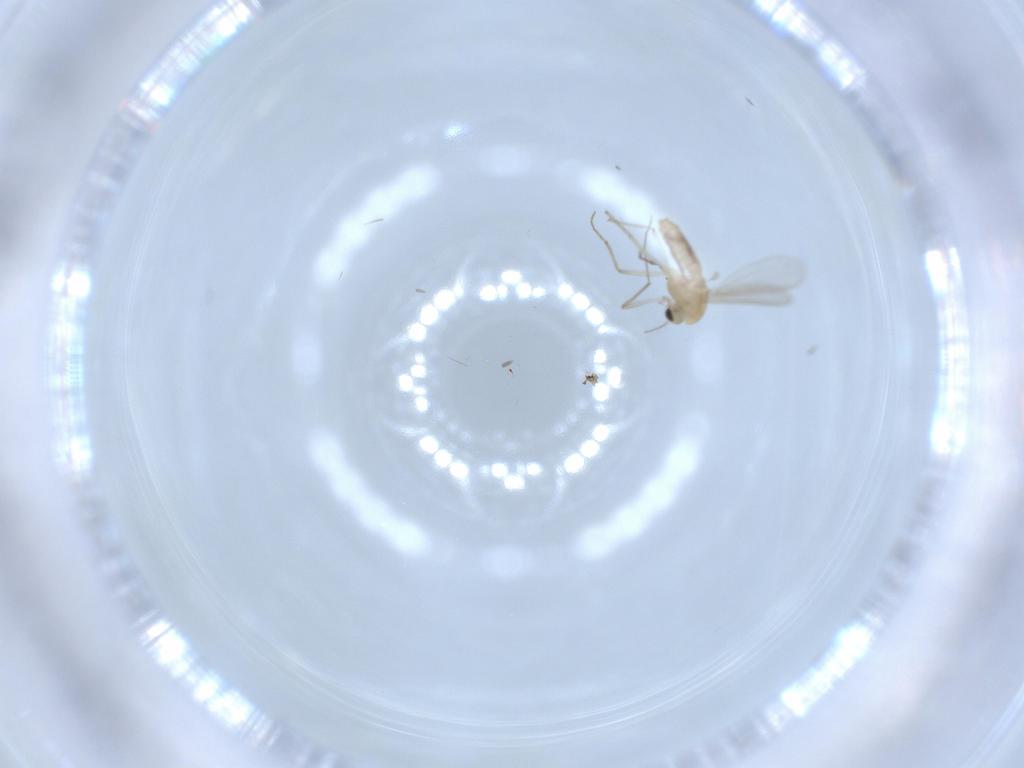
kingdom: Animalia
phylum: Arthropoda
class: Insecta
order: Diptera
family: Chironomidae
